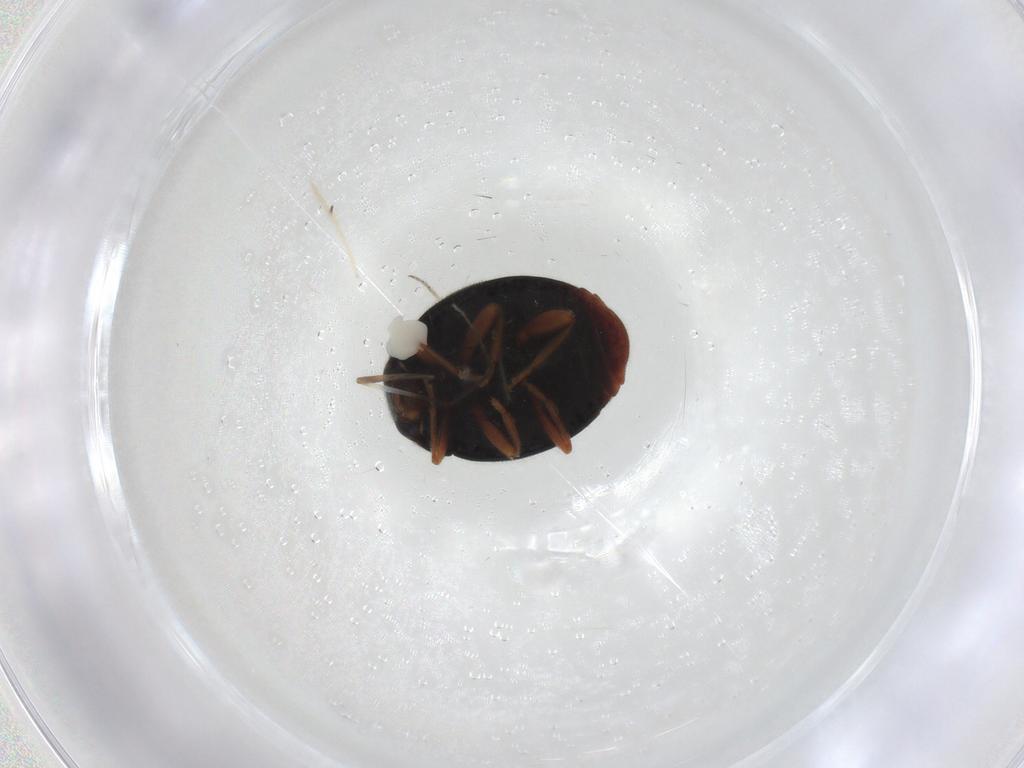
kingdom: Animalia
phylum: Arthropoda
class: Insecta
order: Coleoptera
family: Coccinellidae
